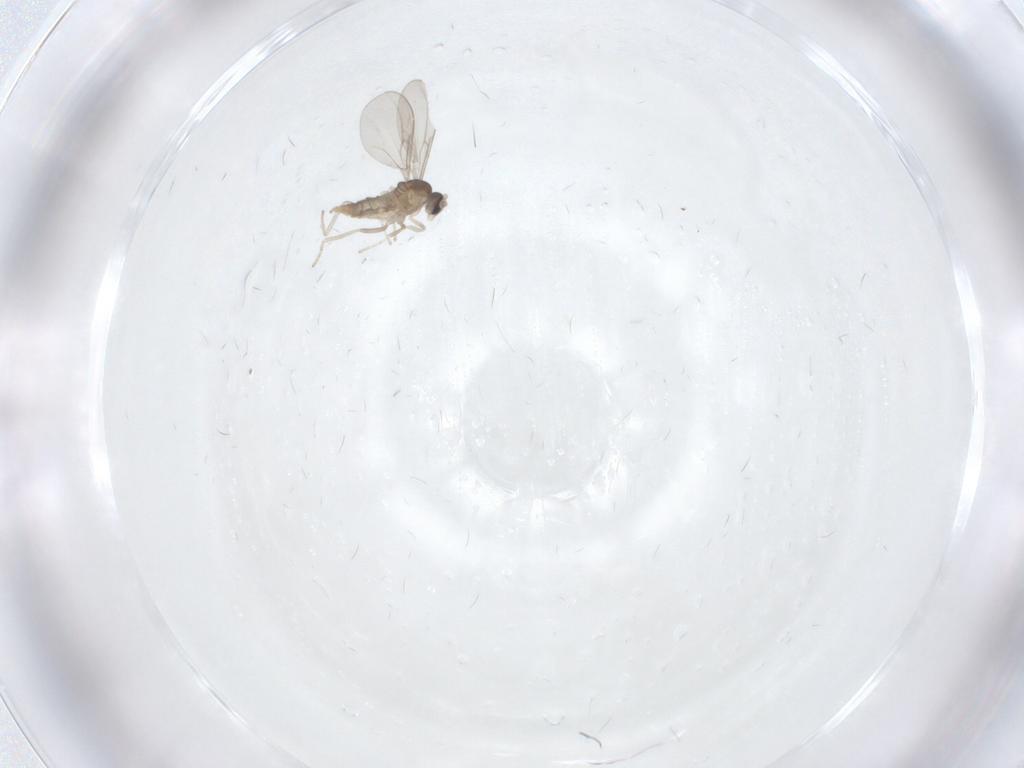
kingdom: Animalia
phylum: Arthropoda
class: Insecta
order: Diptera
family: Cecidomyiidae
